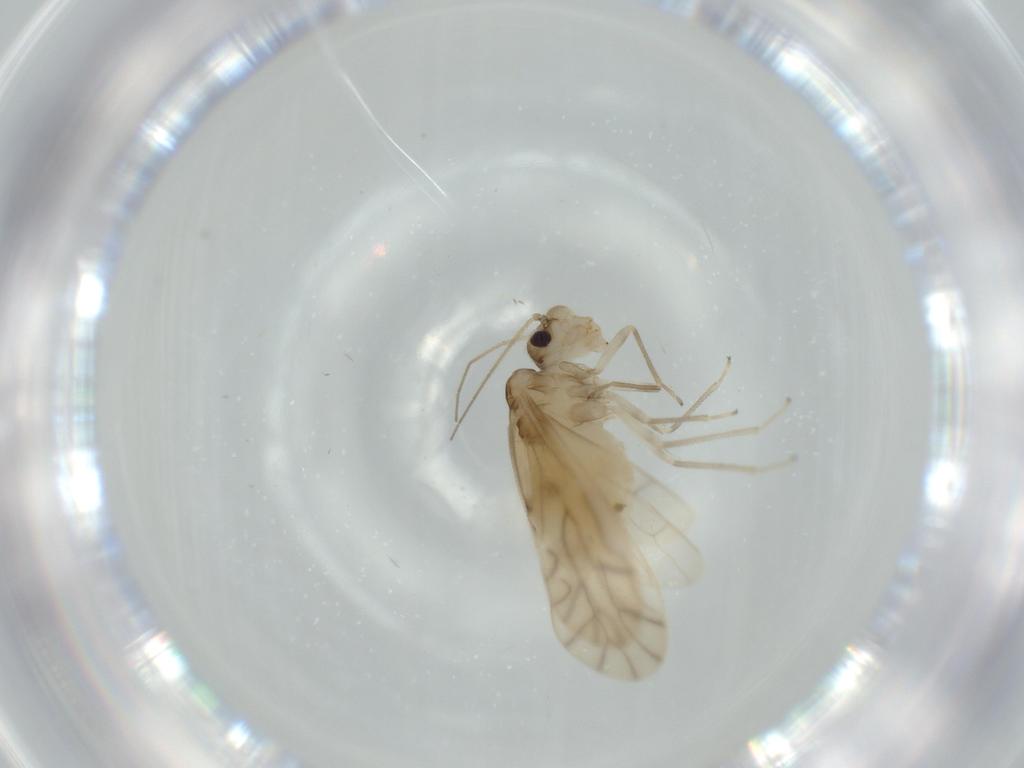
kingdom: Animalia
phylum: Arthropoda
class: Insecta
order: Psocodea
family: Caeciliusidae
